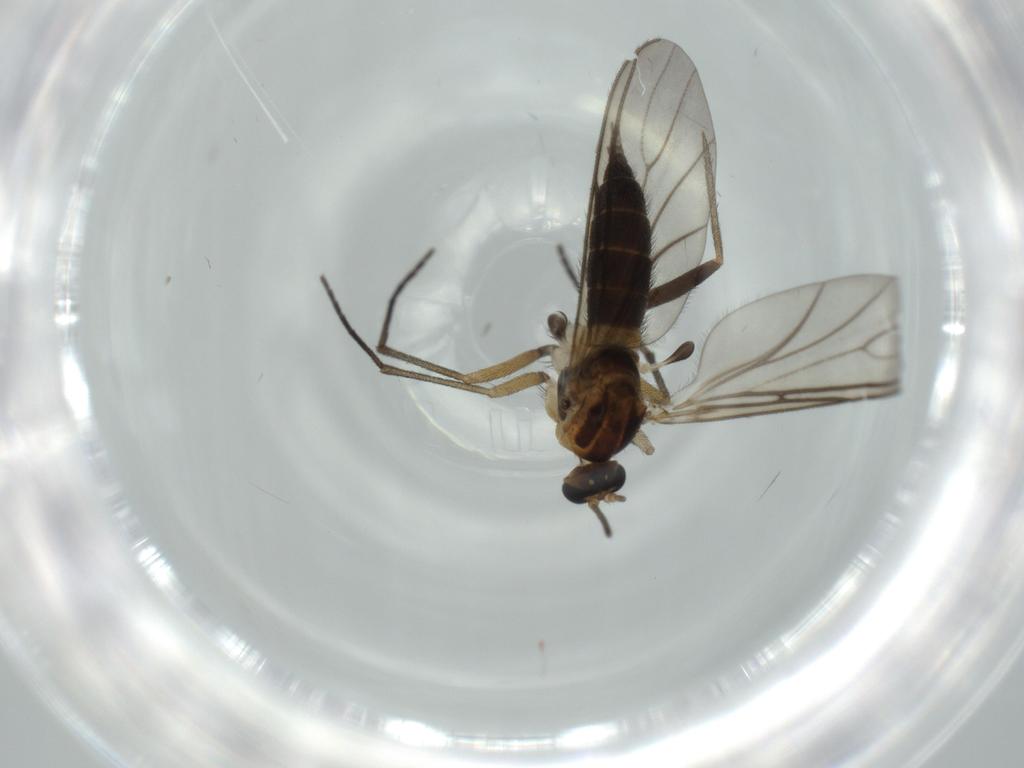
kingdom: Animalia
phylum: Arthropoda
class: Insecta
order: Diptera
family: Sciaridae
